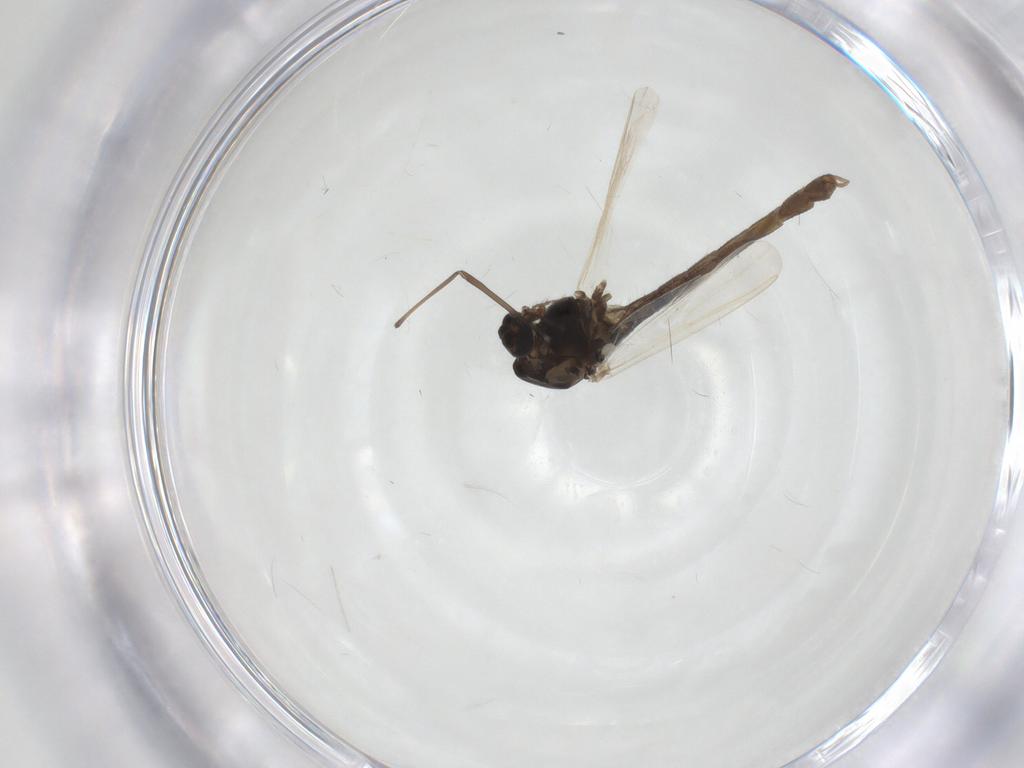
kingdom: Animalia
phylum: Arthropoda
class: Insecta
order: Diptera
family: Chironomidae
